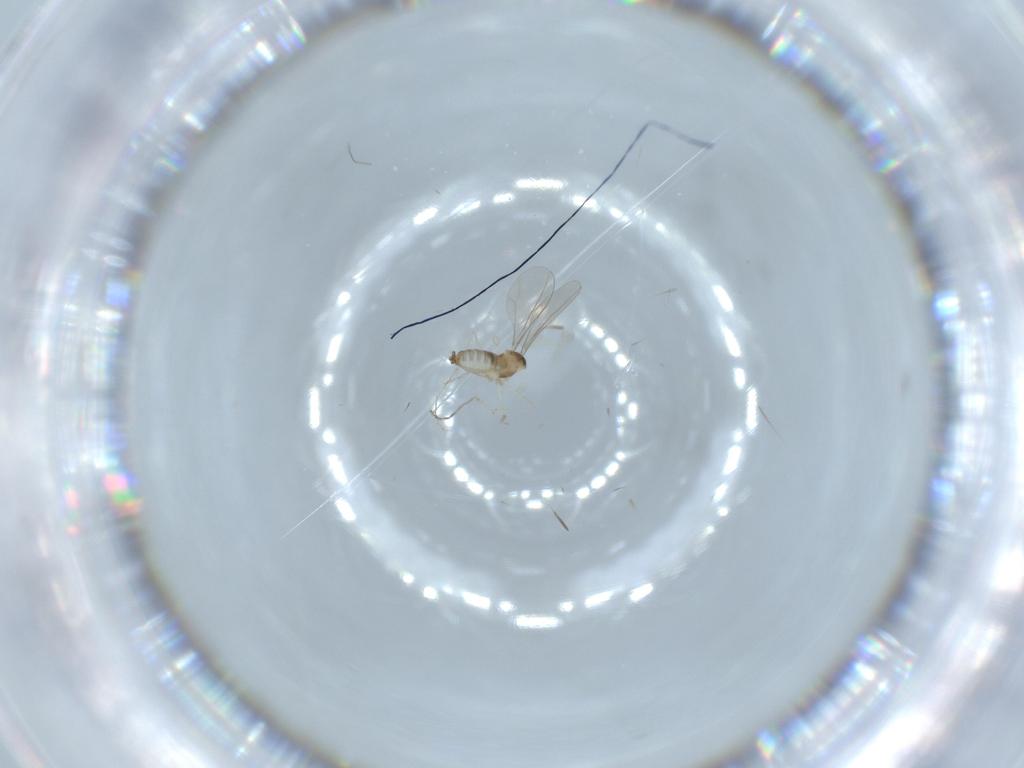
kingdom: Animalia
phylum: Arthropoda
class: Insecta
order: Diptera
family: Cecidomyiidae
